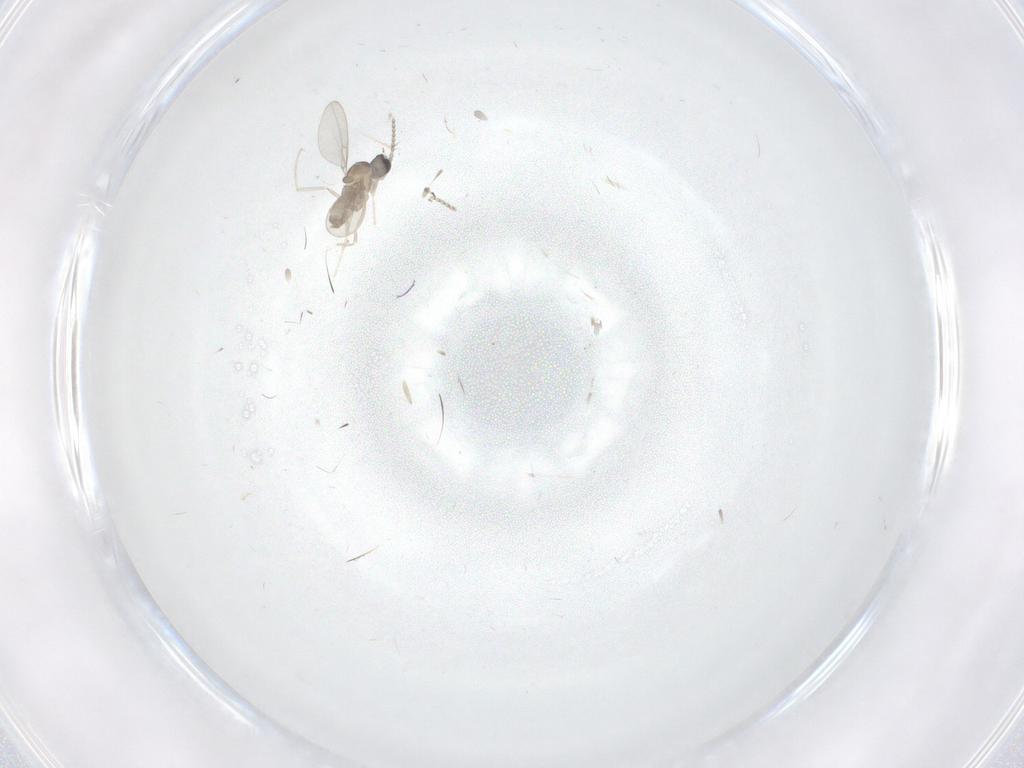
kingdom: Animalia
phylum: Arthropoda
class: Insecta
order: Diptera
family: Cecidomyiidae
